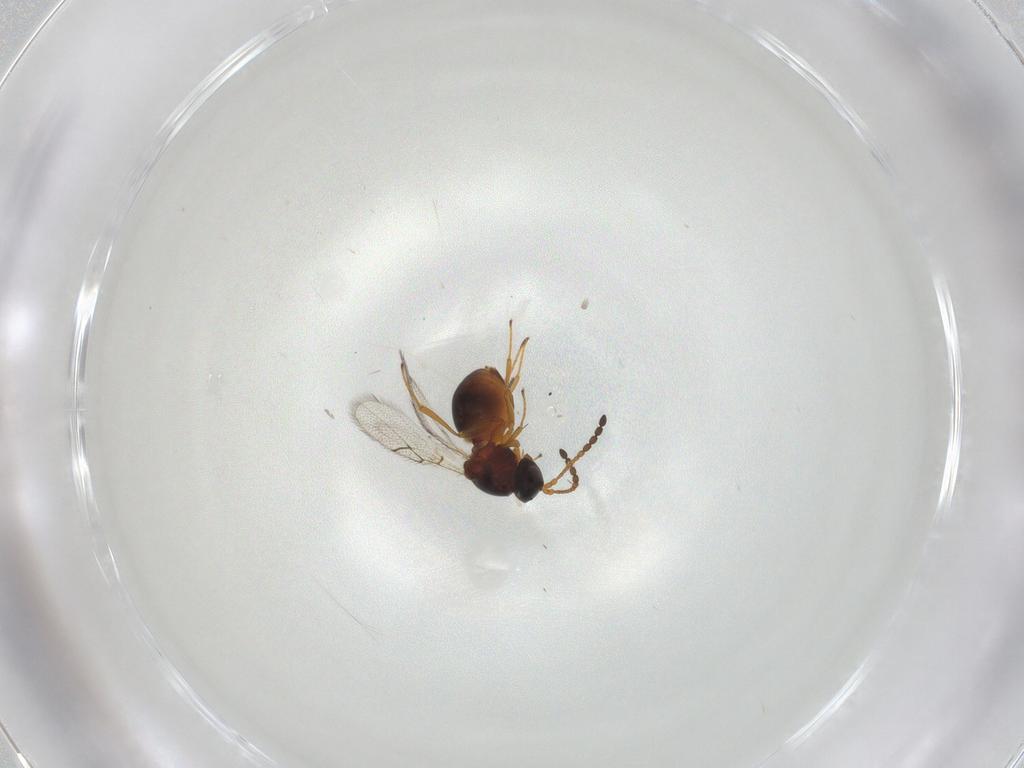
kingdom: Animalia
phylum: Arthropoda
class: Insecta
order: Hymenoptera
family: Figitidae
